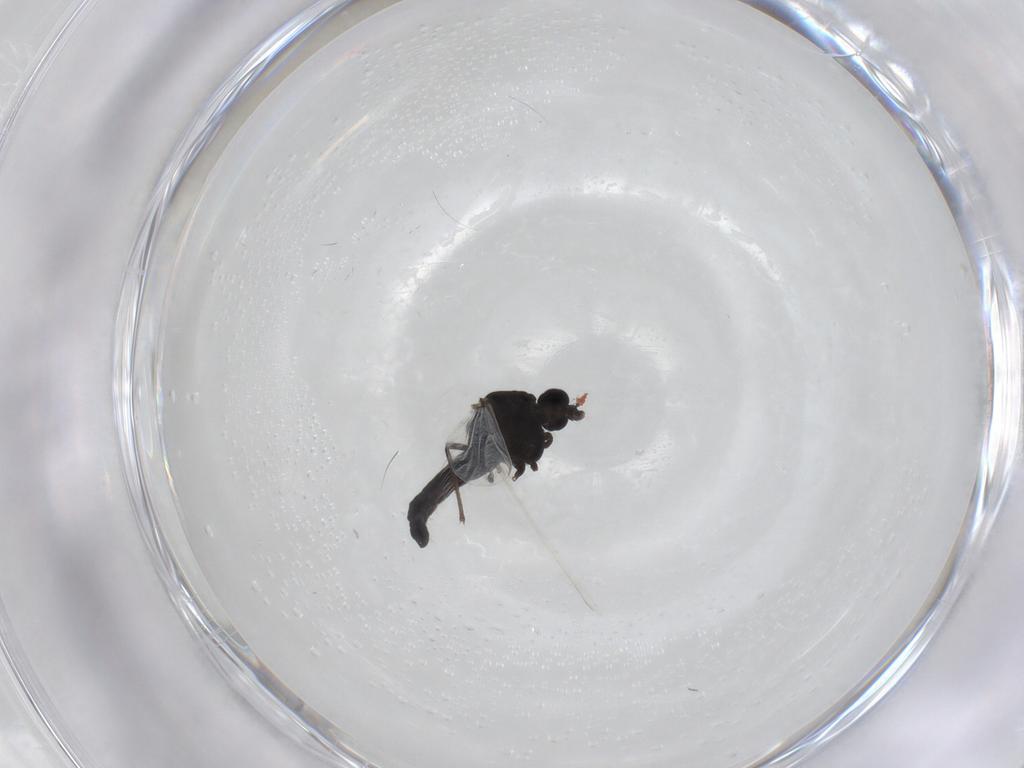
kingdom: Animalia
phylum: Arthropoda
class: Insecta
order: Diptera
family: Chironomidae
